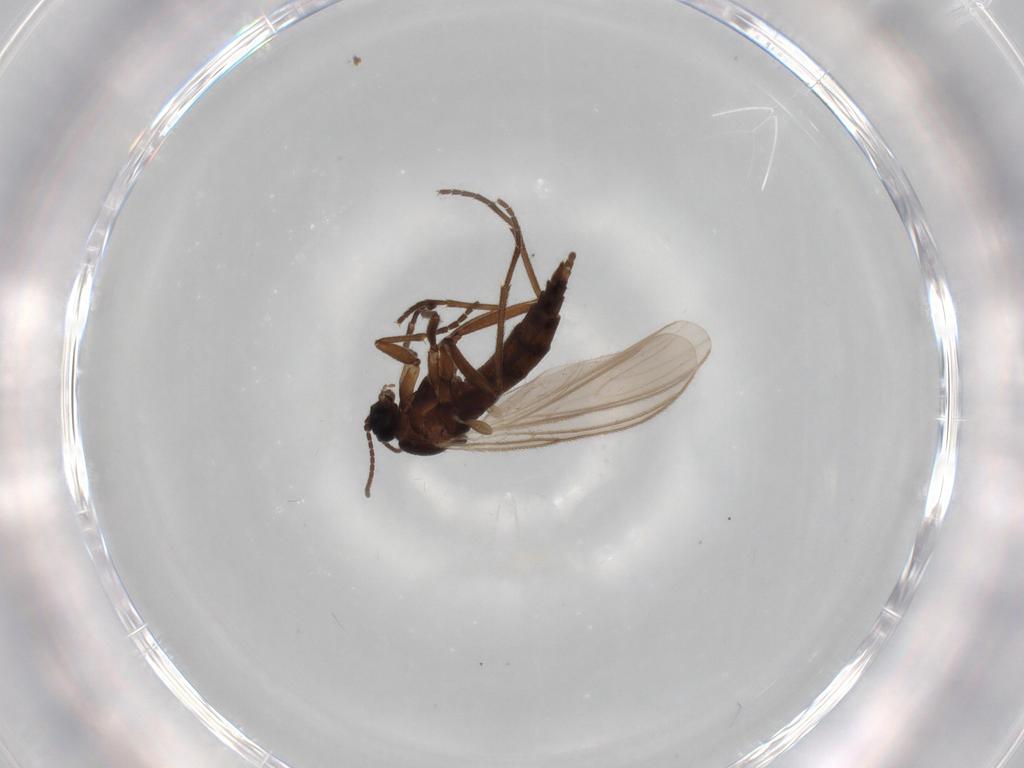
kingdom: Animalia
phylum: Arthropoda
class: Insecta
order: Diptera
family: Sciaridae
